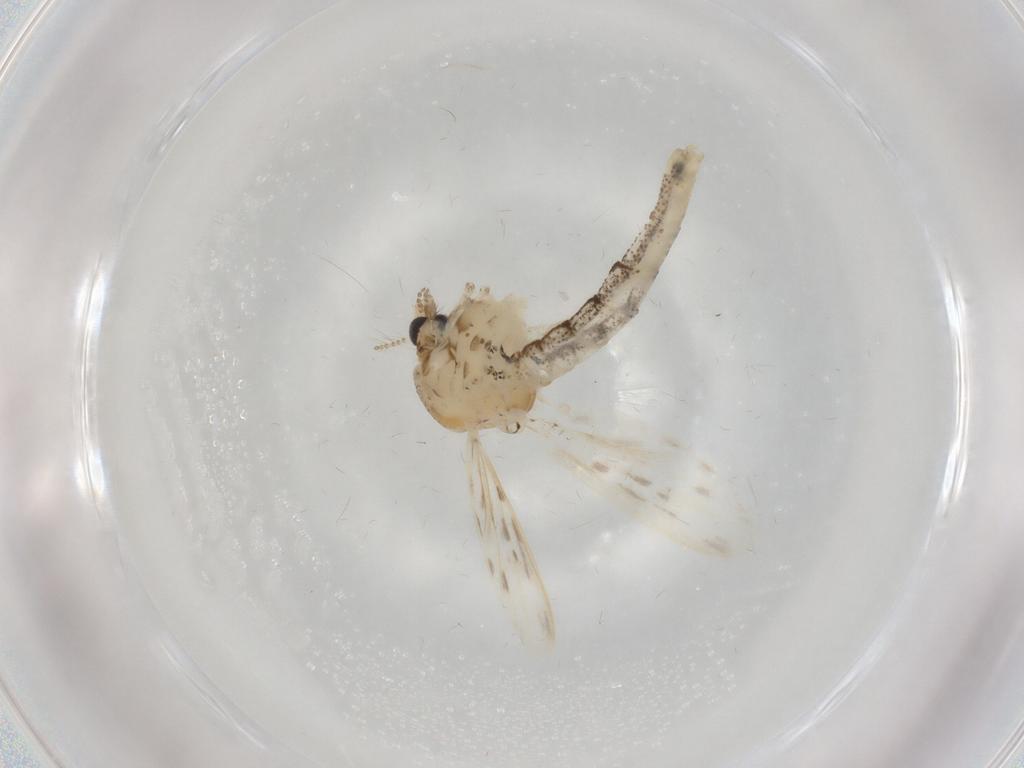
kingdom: Animalia
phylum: Arthropoda
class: Insecta
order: Diptera
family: Chaoboridae
